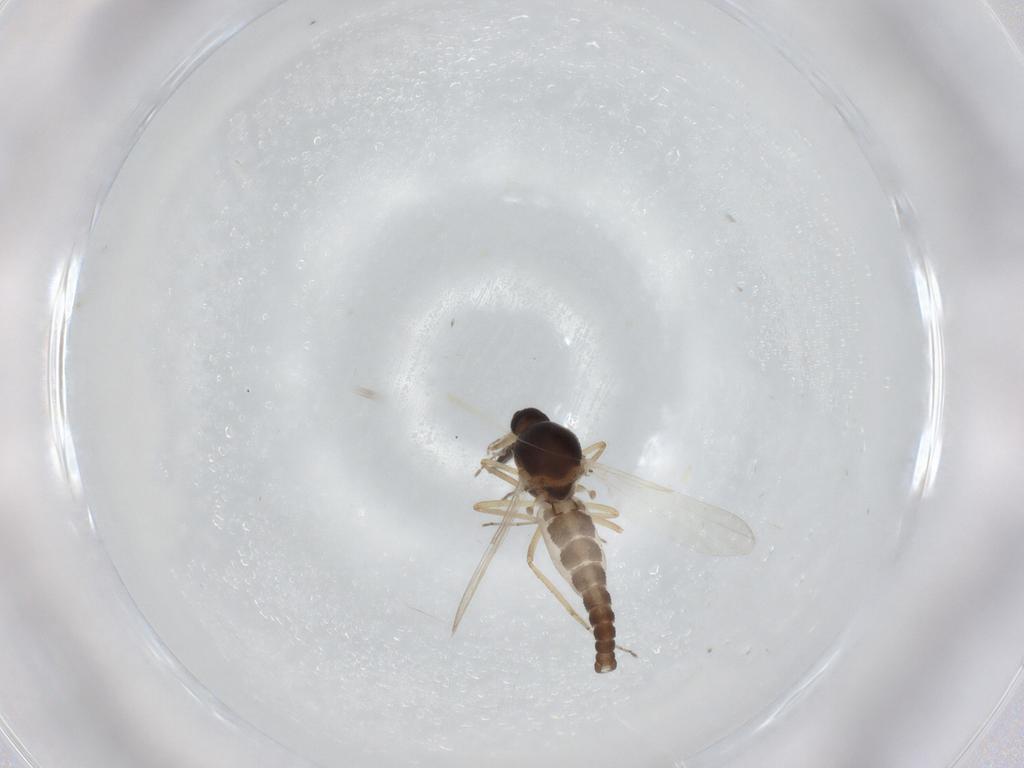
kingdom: Animalia
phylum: Arthropoda
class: Insecta
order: Diptera
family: Ceratopogonidae
